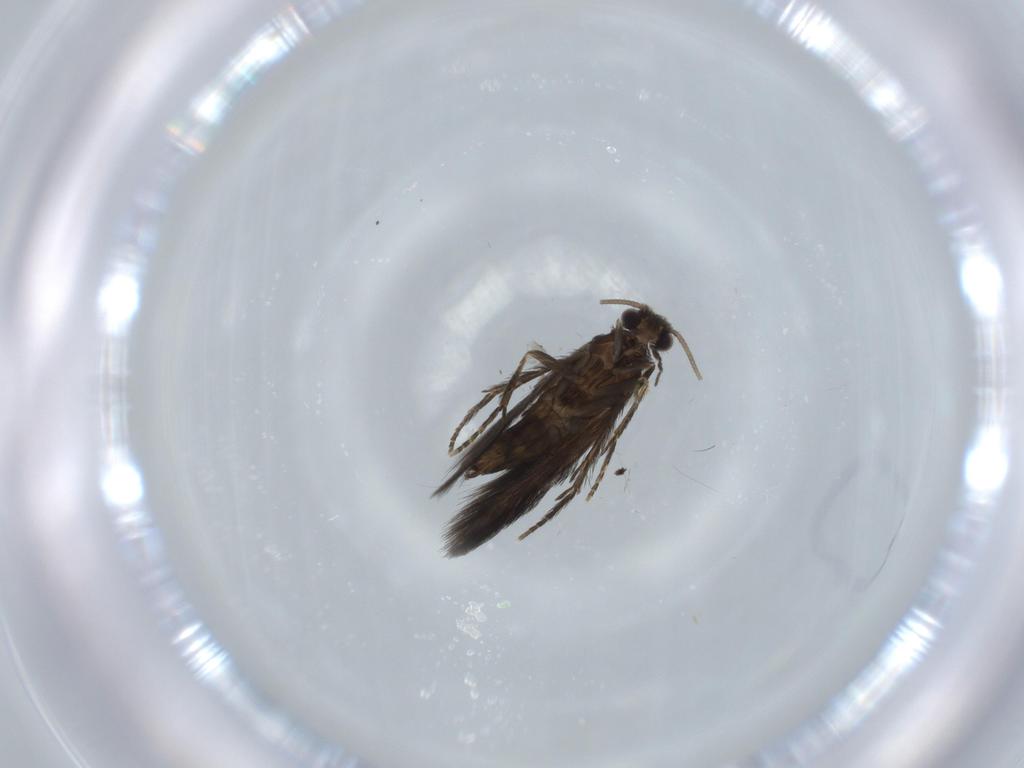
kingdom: Animalia
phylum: Arthropoda
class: Insecta
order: Trichoptera
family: Hydroptilidae
